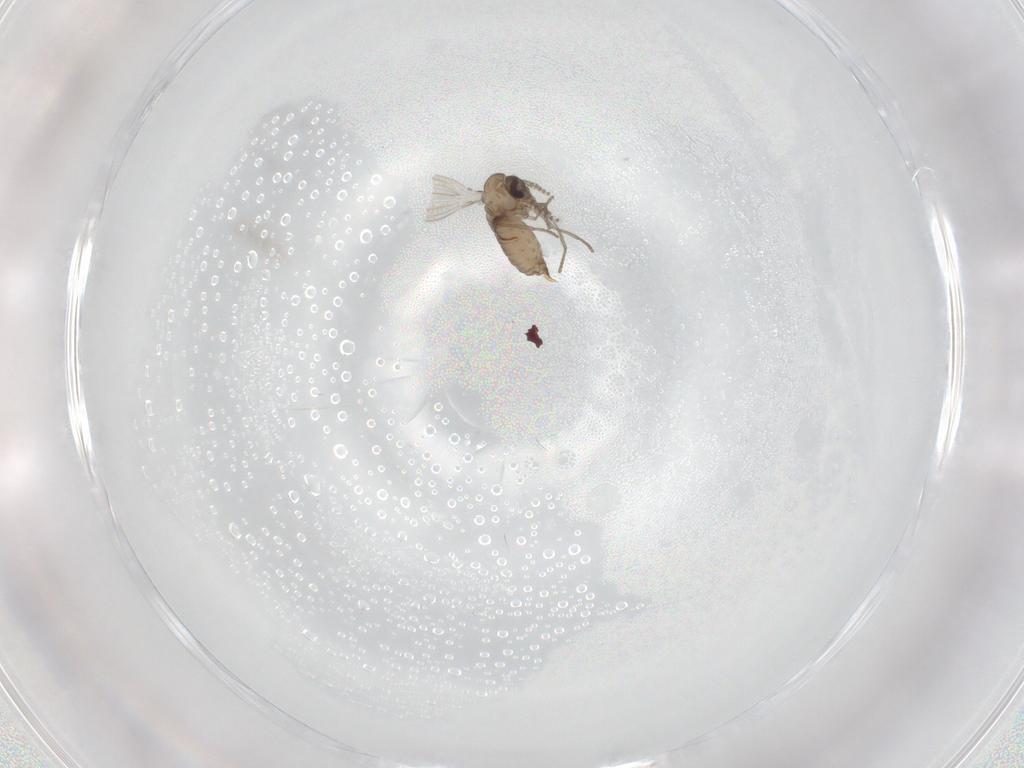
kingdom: Animalia
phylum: Arthropoda
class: Insecta
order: Diptera
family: Psychodidae
